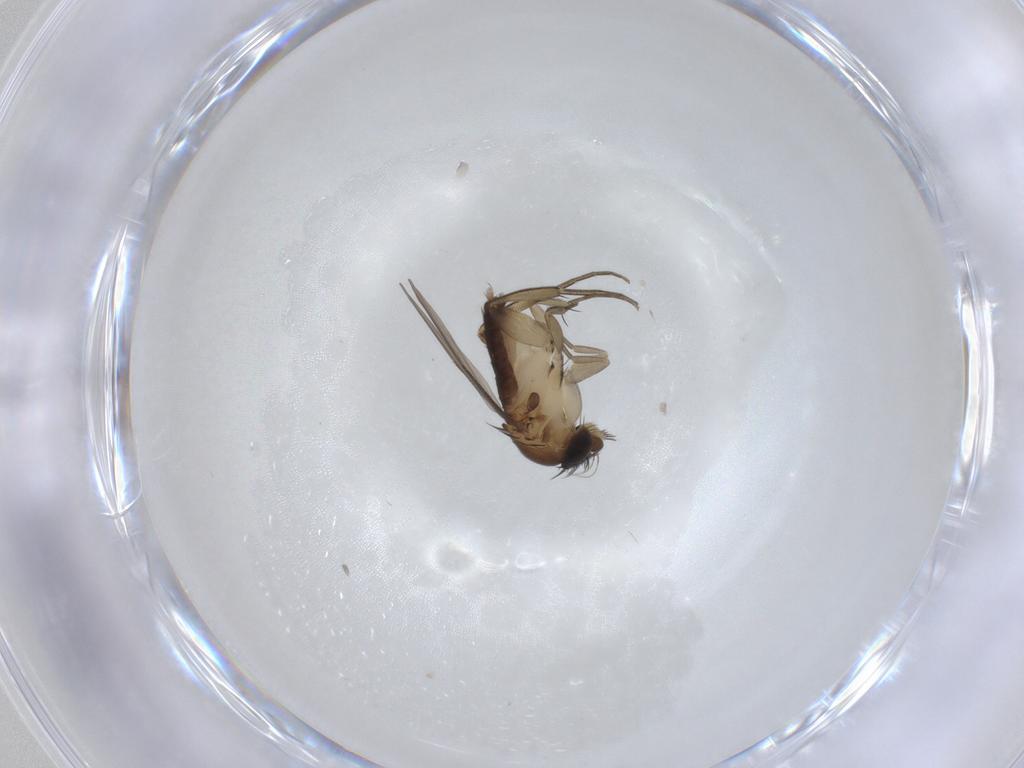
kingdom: Animalia
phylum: Arthropoda
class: Insecta
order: Diptera
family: Phoridae
